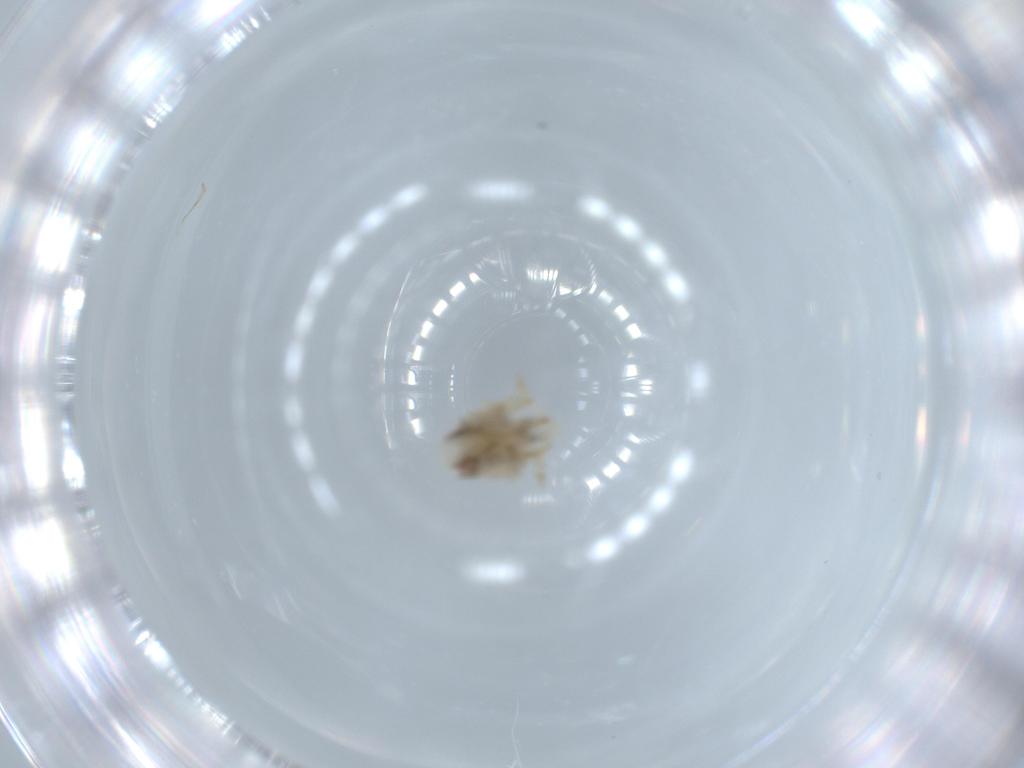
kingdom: Animalia
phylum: Arthropoda
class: Insecta
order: Hemiptera
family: Acanaloniidae
